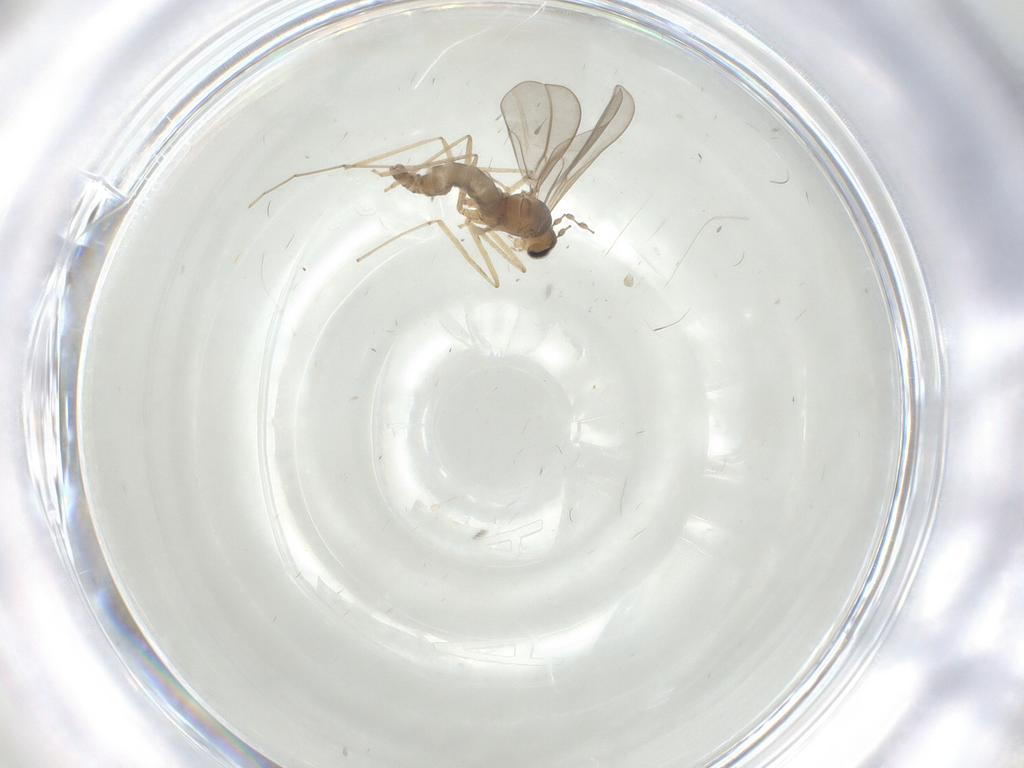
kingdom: Animalia
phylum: Arthropoda
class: Insecta
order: Diptera
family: Cecidomyiidae
